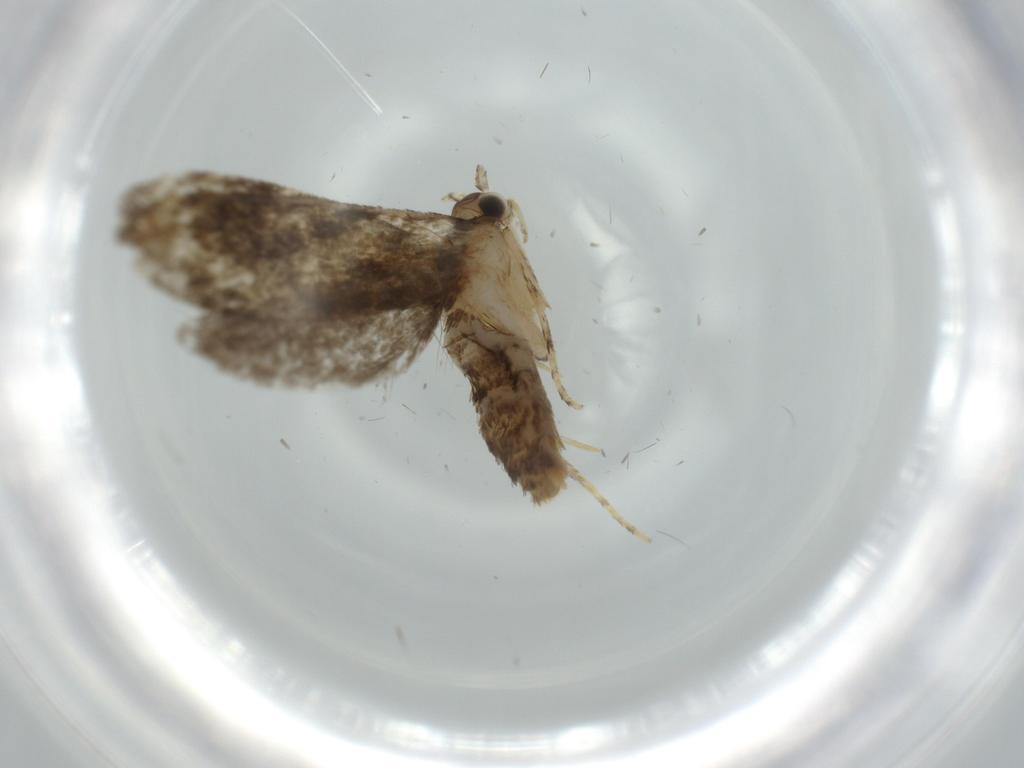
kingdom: Animalia
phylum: Arthropoda
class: Insecta
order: Lepidoptera
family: Tineidae
